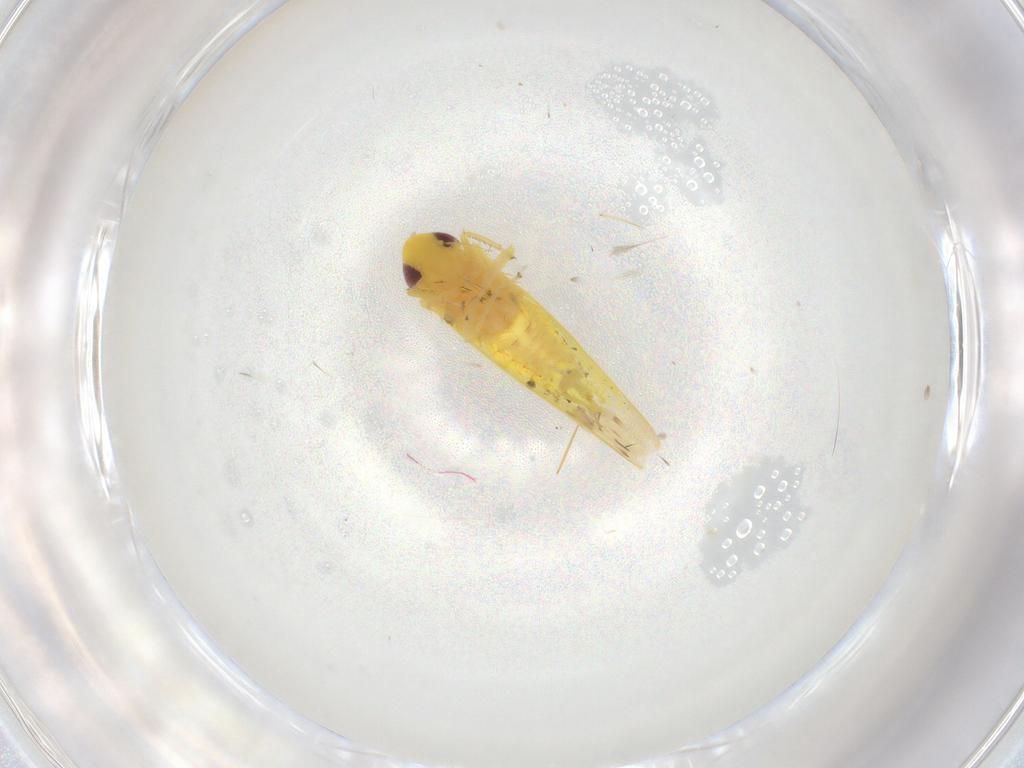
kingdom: Animalia
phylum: Arthropoda
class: Insecta
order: Hemiptera
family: Cicadellidae
